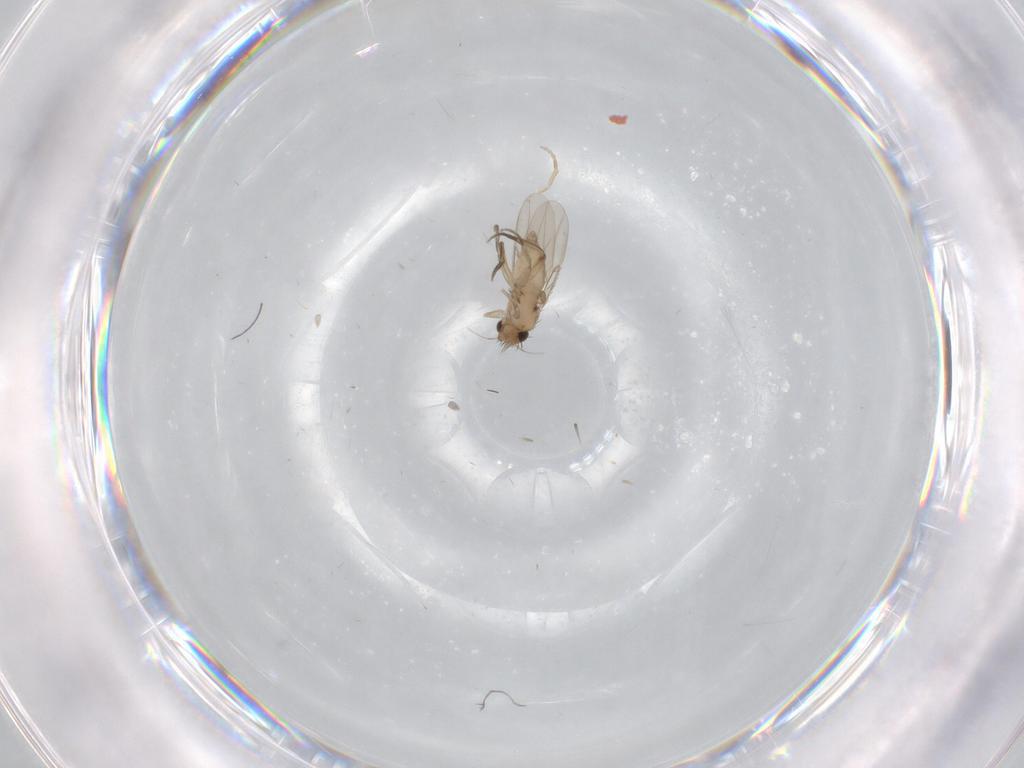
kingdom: Animalia
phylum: Arthropoda
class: Insecta
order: Diptera
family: Phoridae
